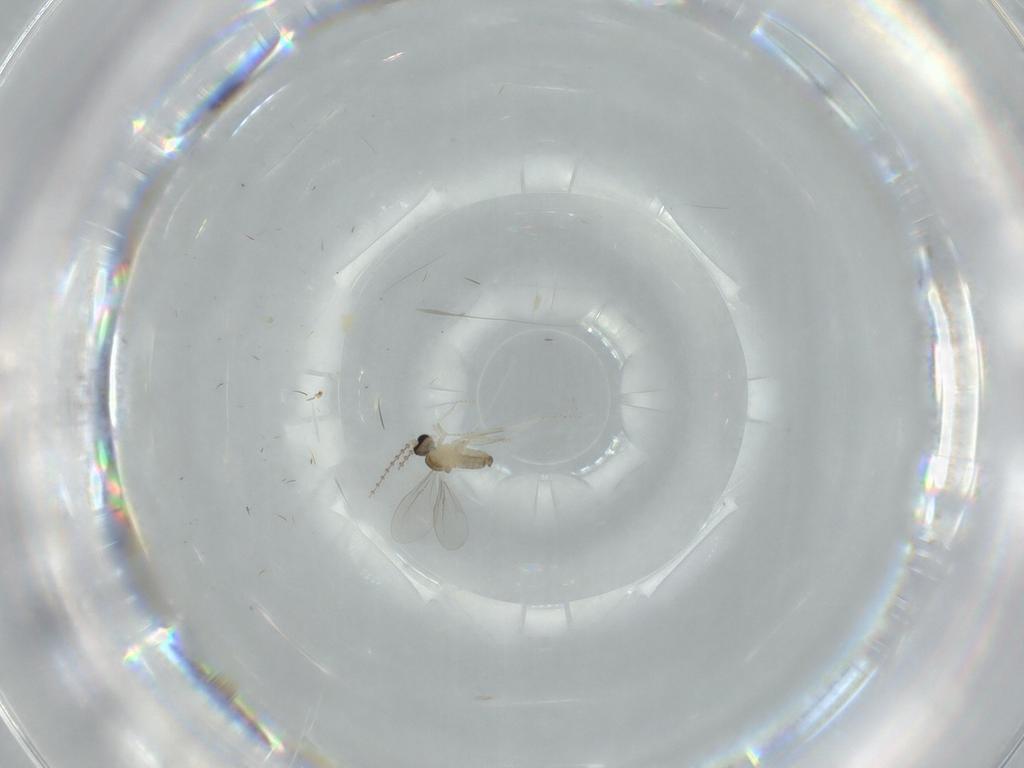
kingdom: Animalia
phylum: Arthropoda
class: Insecta
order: Diptera
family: Cecidomyiidae
